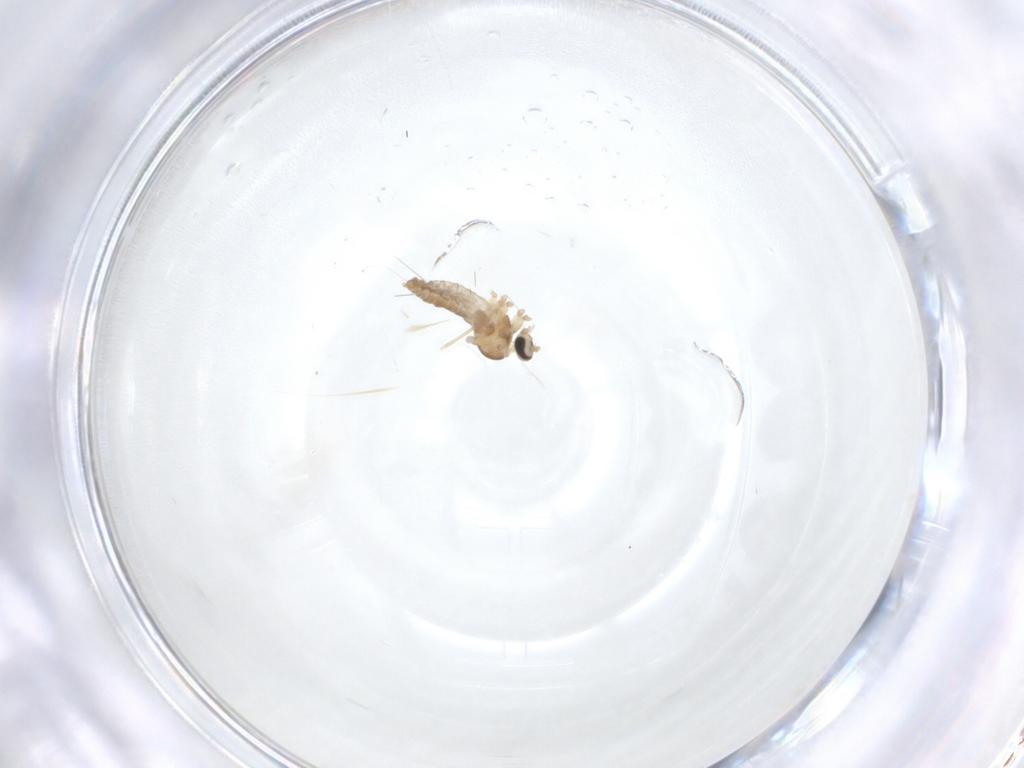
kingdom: Animalia
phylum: Arthropoda
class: Insecta
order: Diptera
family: Cecidomyiidae
